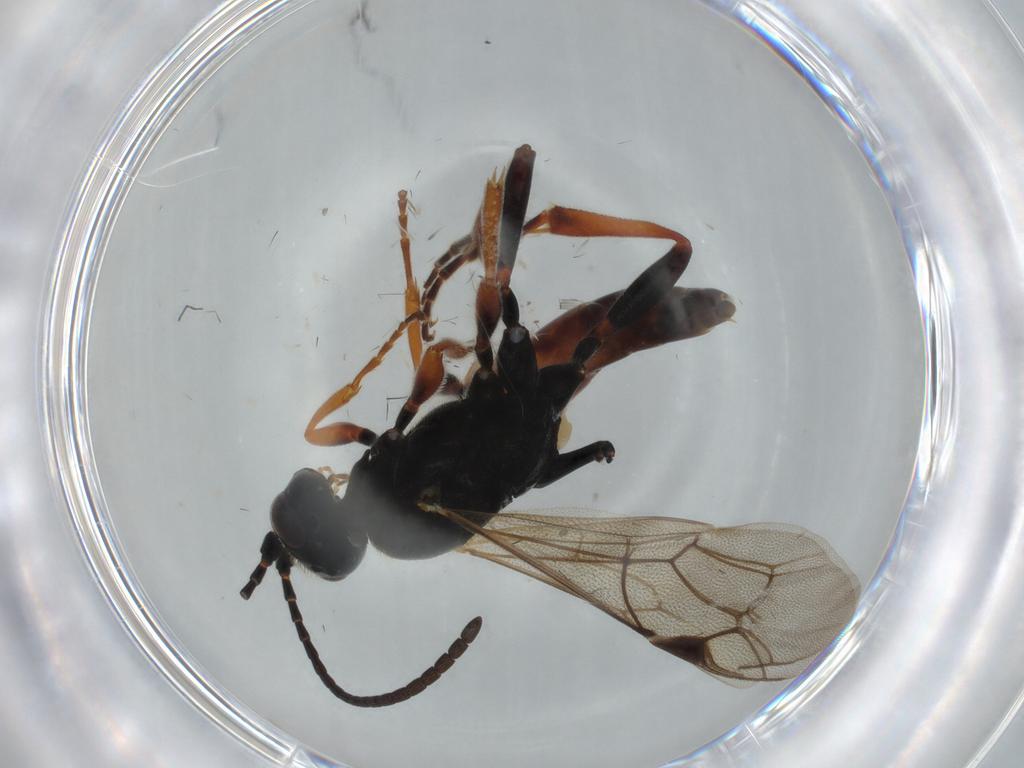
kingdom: Animalia
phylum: Arthropoda
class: Insecta
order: Hymenoptera
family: Ichneumonidae
